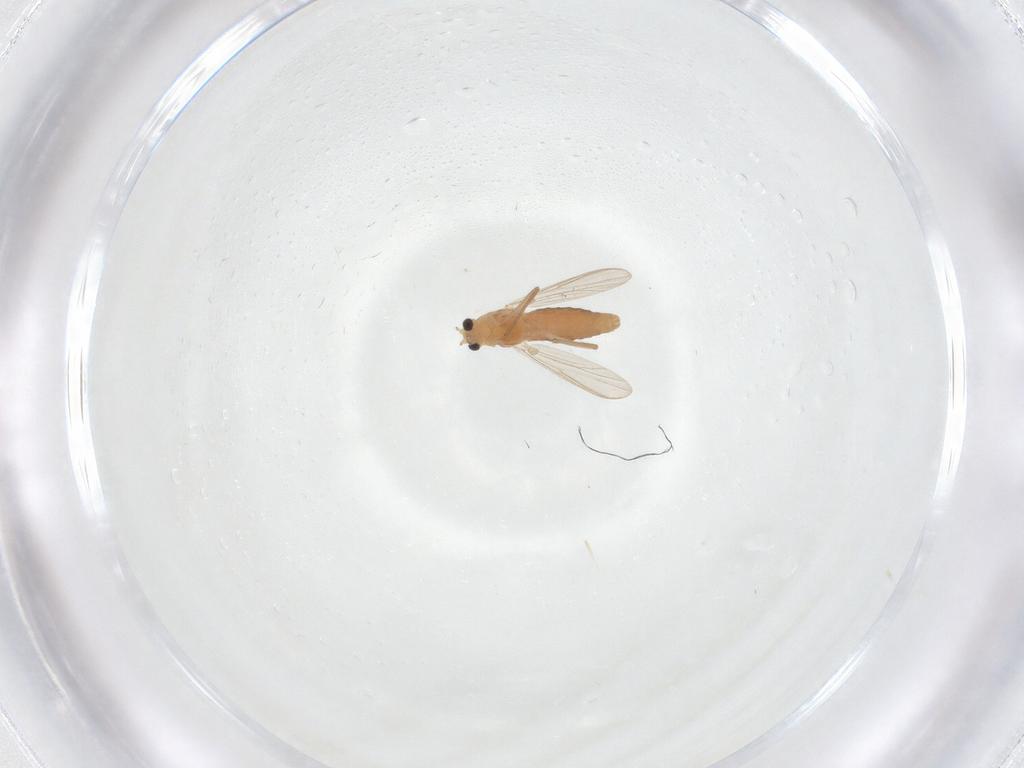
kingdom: Animalia
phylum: Arthropoda
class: Insecta
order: Diptera
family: Chironomidae
